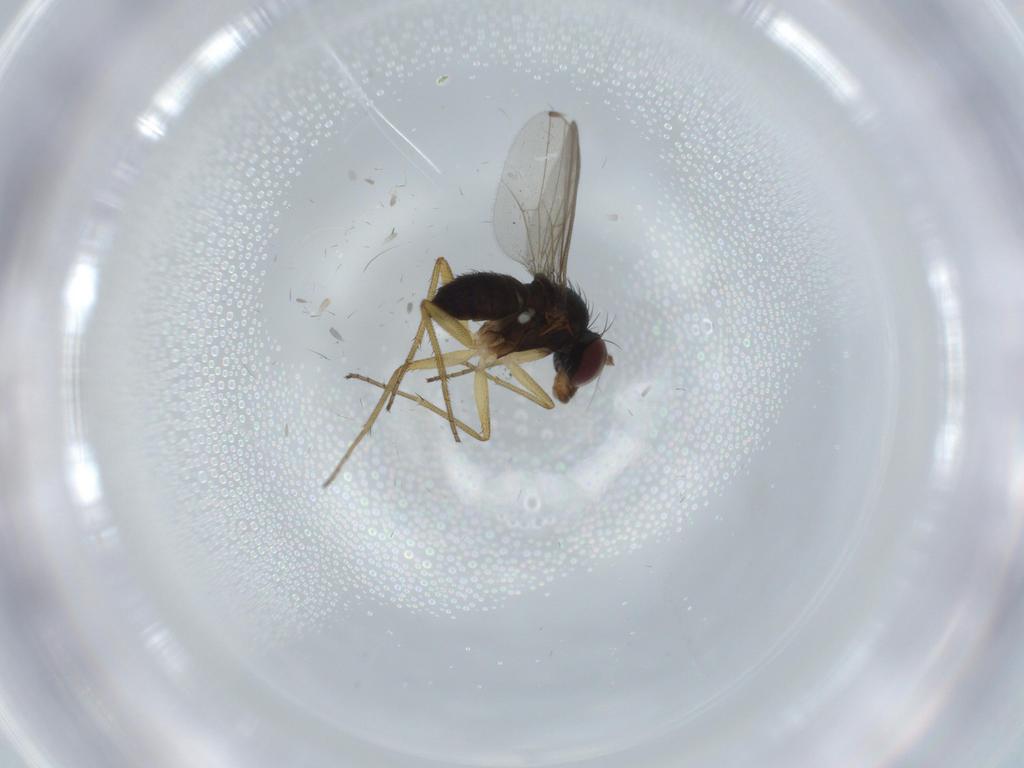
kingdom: Animalia
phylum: Arthropoda
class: Insecta
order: Diptera
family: Dolichopodidae
